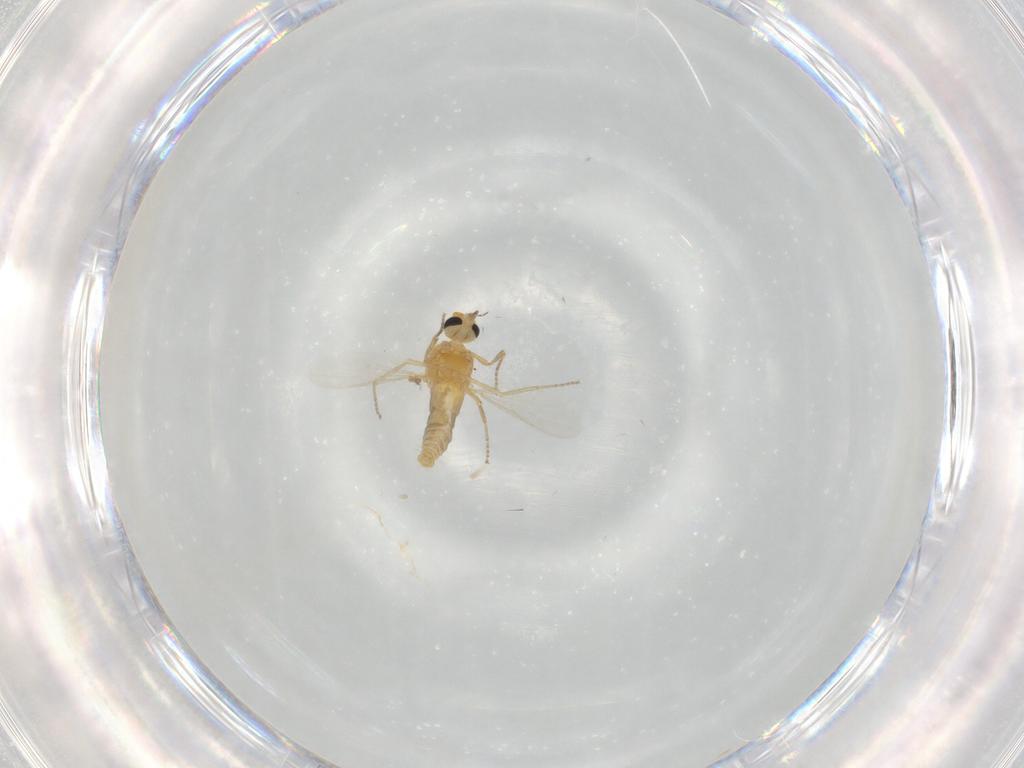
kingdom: Animalia
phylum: Arthropoda
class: Insecta
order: Diptera
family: Ceratopogonidae
